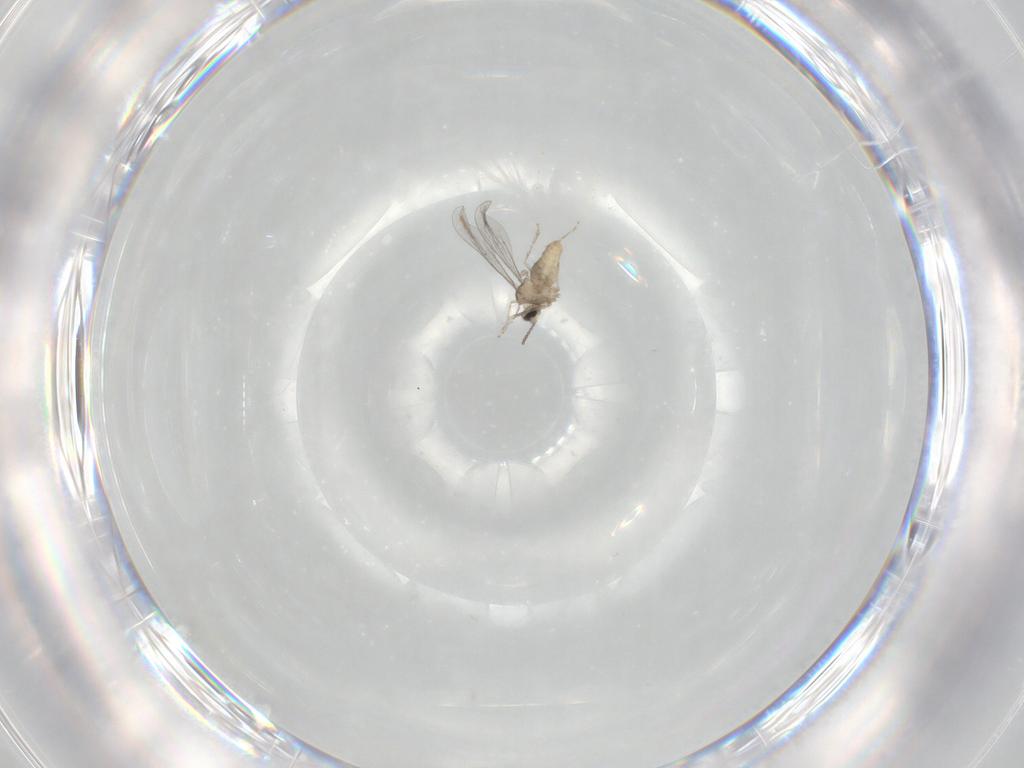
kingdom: Animalia
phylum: Arthropoda
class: Insecta
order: Diptera
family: Cecidomyiidae
